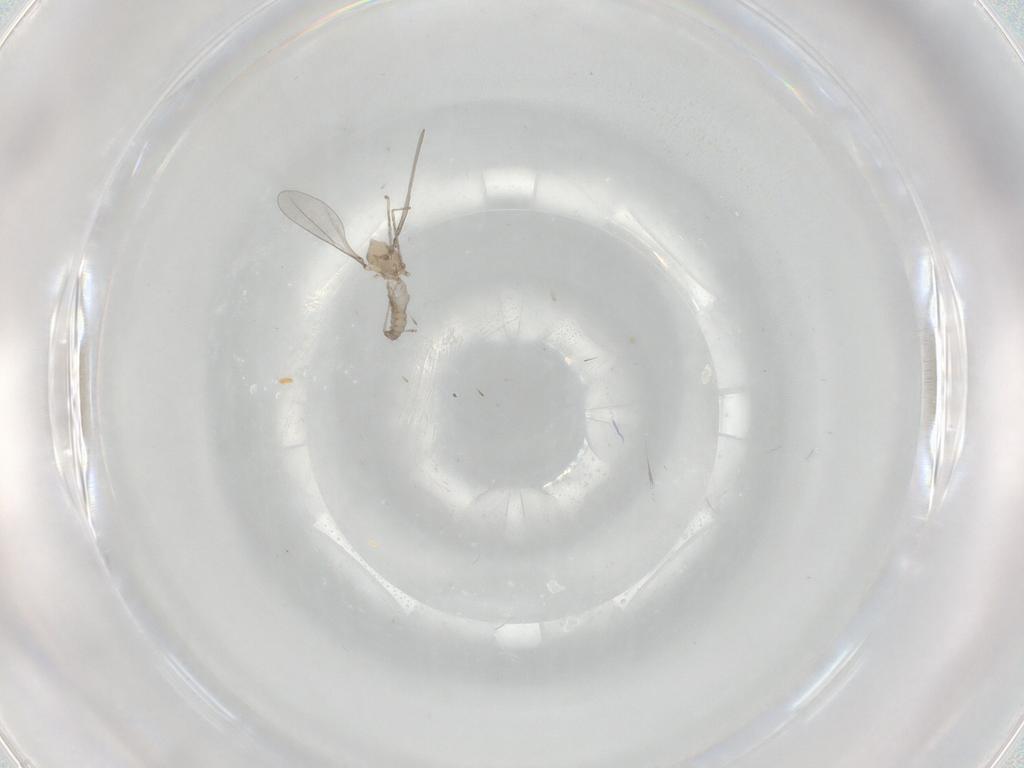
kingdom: Animalia
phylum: Arthropoda
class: Insecta
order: Diptera
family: Cecidomyiidae
